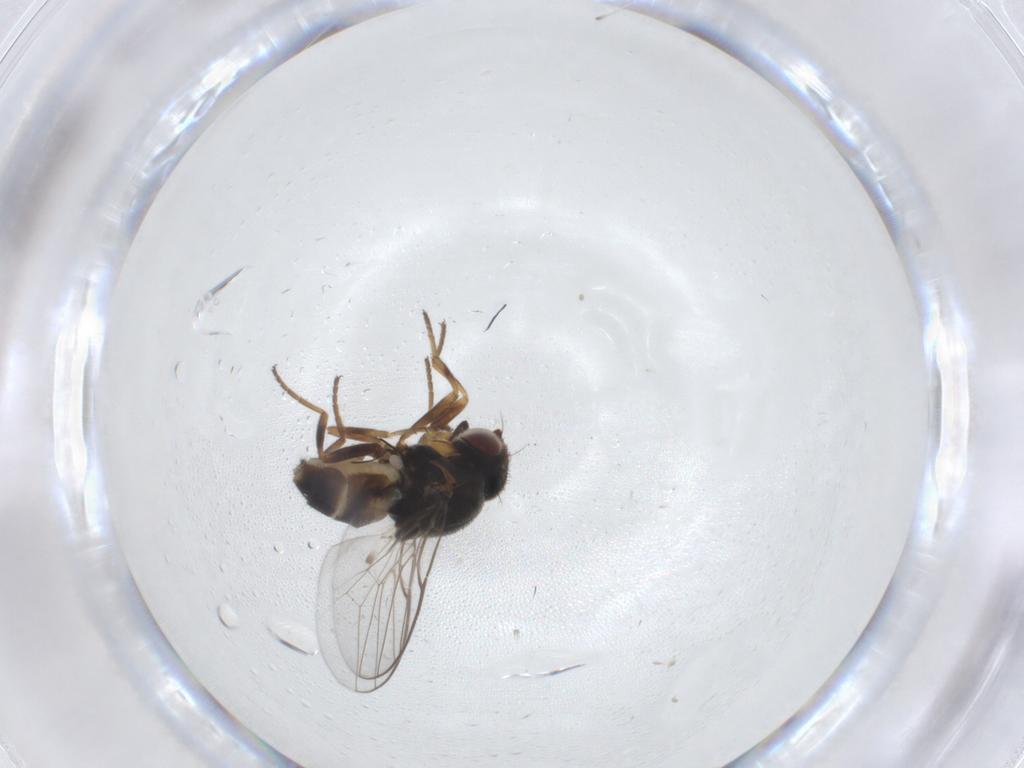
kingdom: Animalia
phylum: Arthropoda
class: Insecta
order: Diptera
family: Chloropidae
